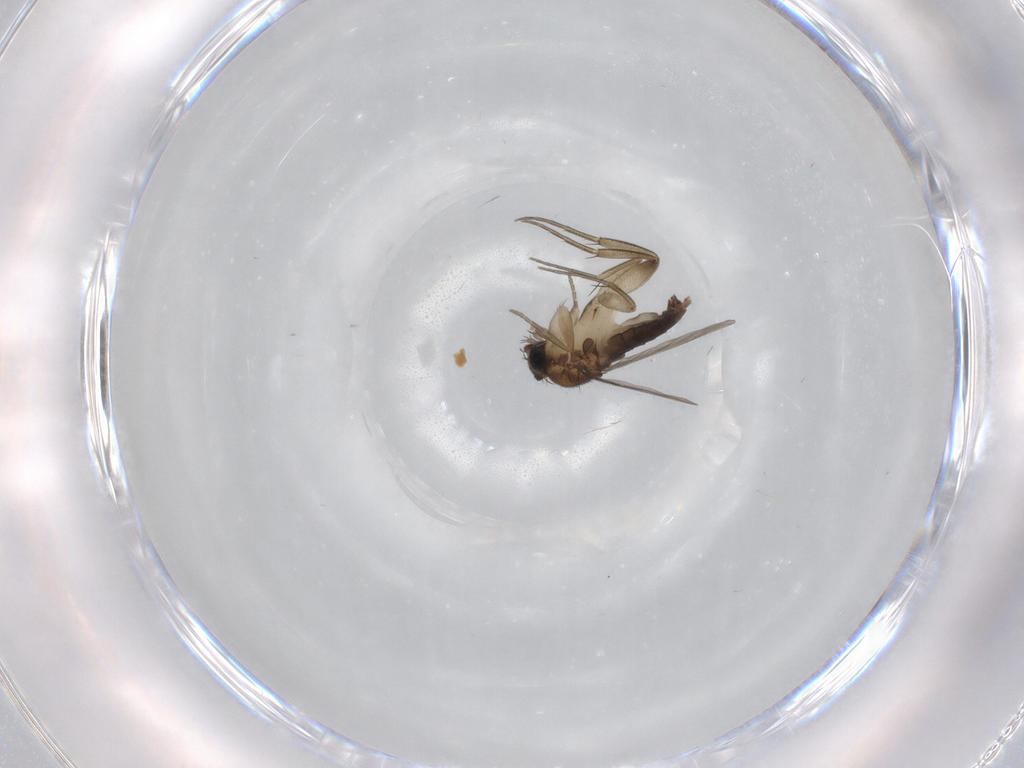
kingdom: Animalia
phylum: Arthropoda
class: Insecta
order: Diptera
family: Phoridae
